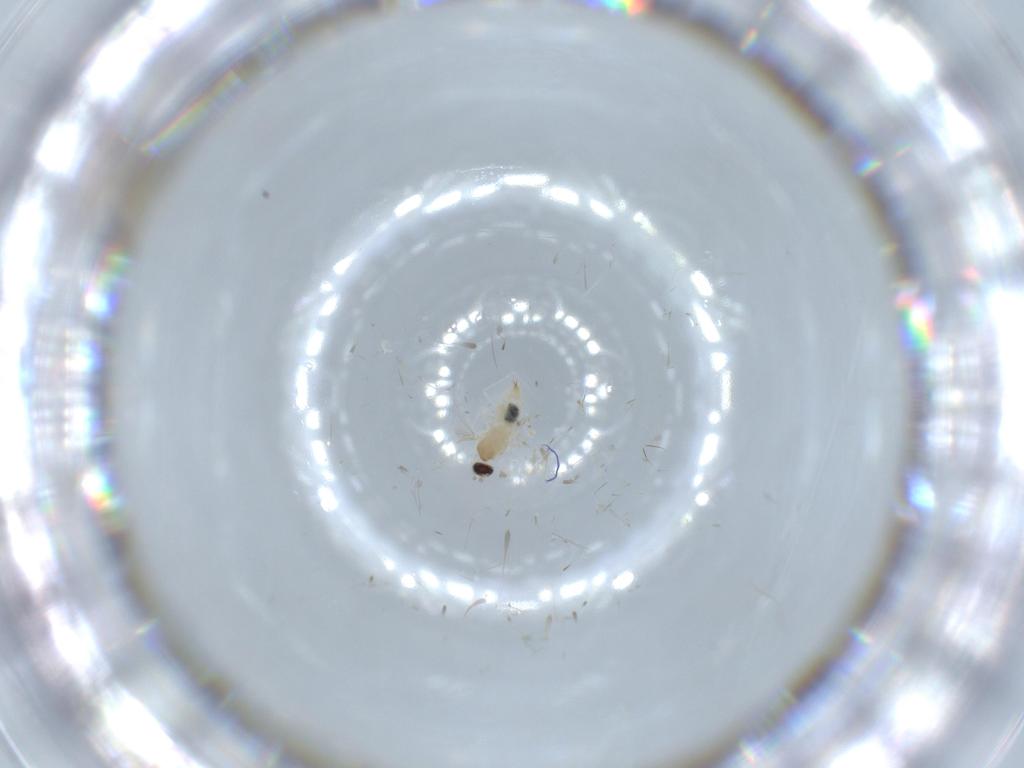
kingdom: Animalia
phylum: Arthropoda
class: Insecta
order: Diptera
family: Cecidomyiidae
